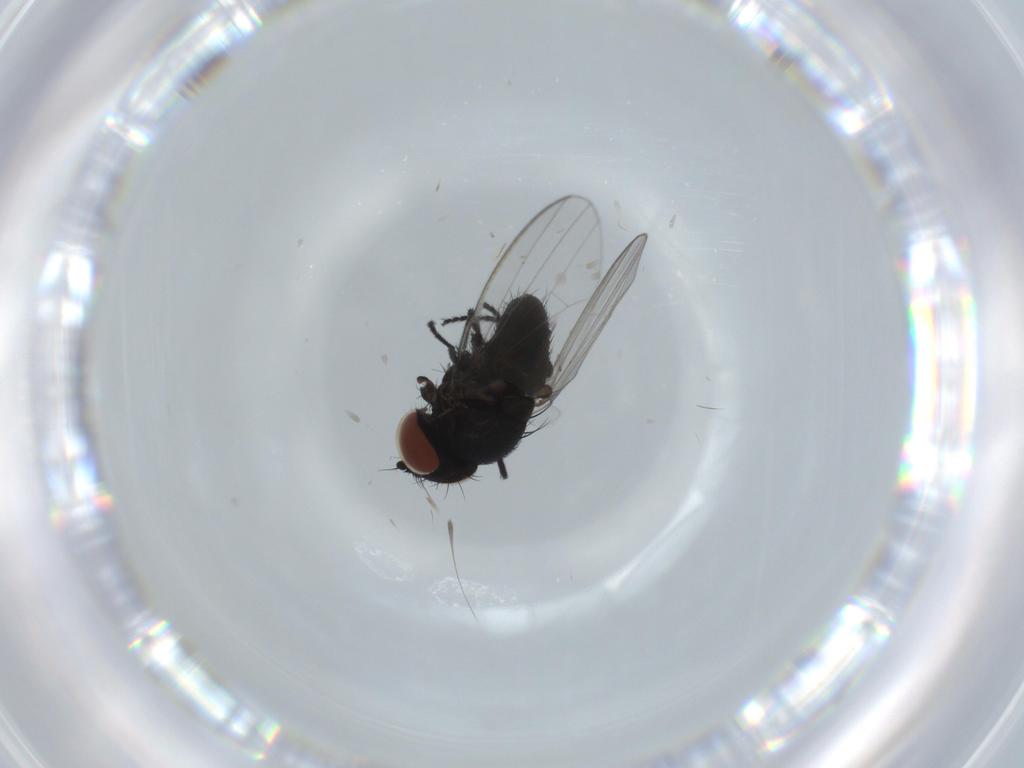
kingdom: Animalia
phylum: Arthropoda
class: Insecta
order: Diptera
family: Milichiidae
